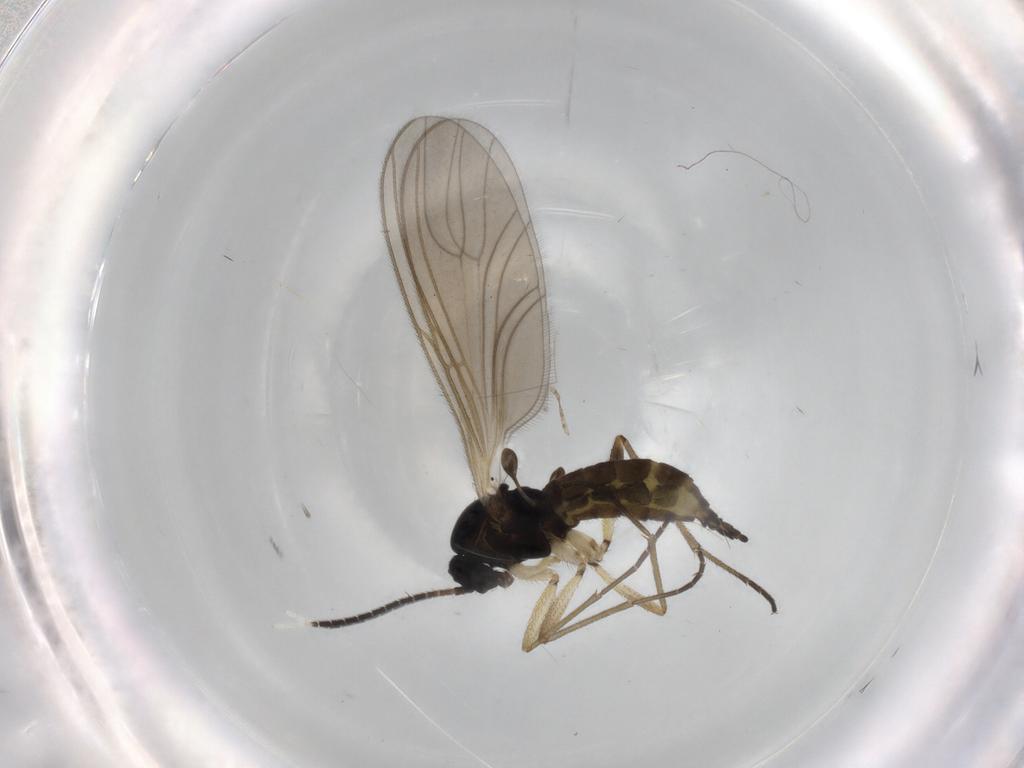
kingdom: Animalia
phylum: Arthropoda
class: Insecta
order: Diptera
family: Sciaridae
